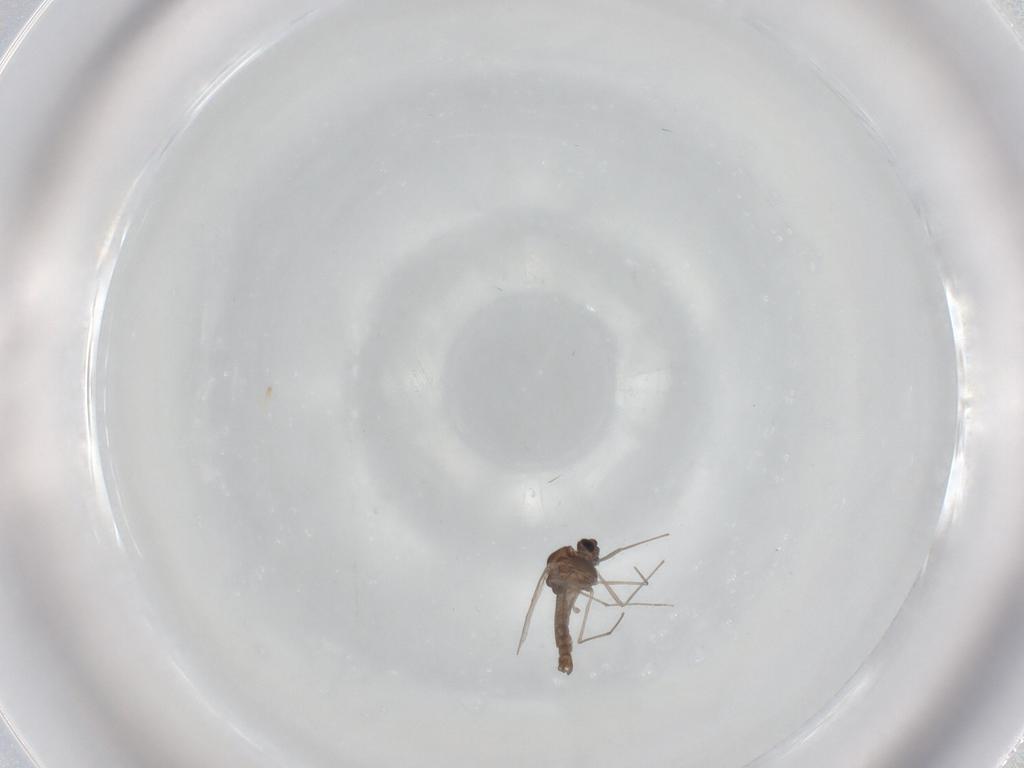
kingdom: Animalia
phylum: Arthropoda
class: Insecta
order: Diptera
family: Chironomidae
